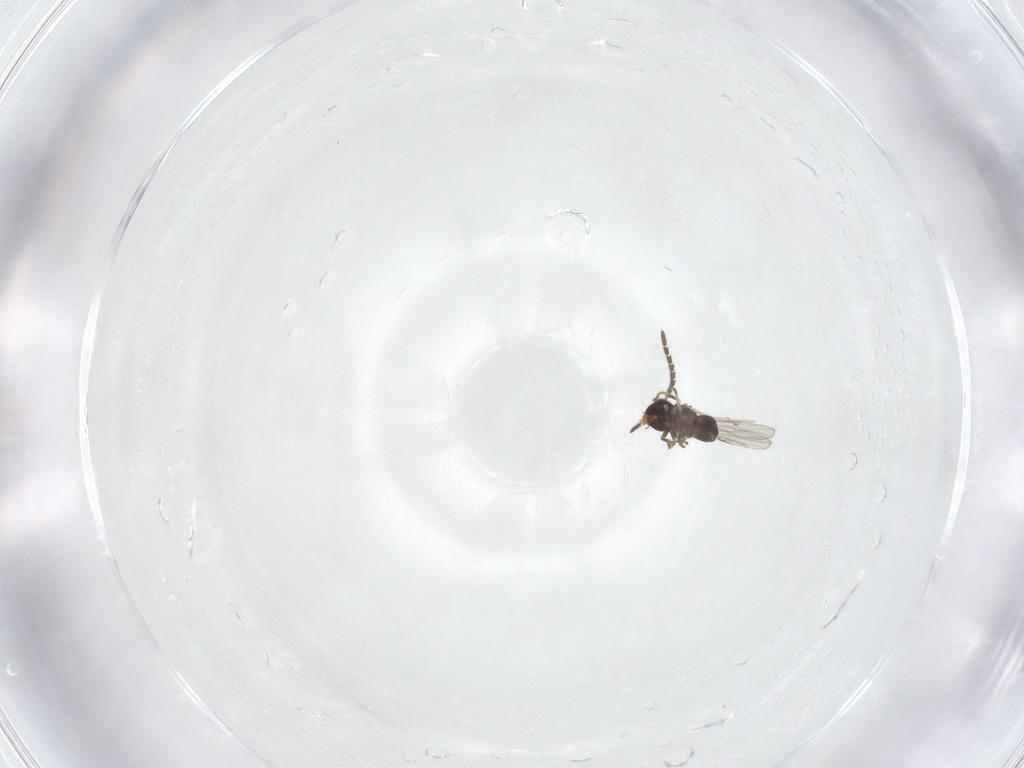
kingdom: Animalia
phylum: Arthropoda
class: Insecta
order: Hymenoptera
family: Encyrtidae
